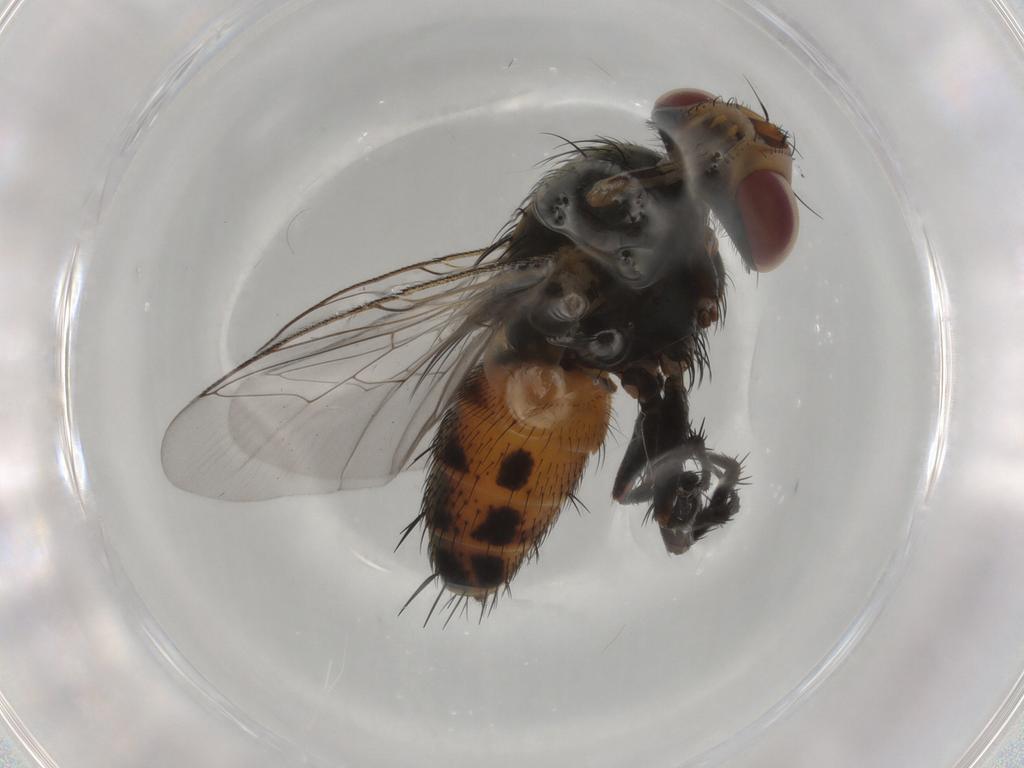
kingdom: Animalia
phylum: Arthropoda
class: Insecta
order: Diptera
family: Sarcophagidae
